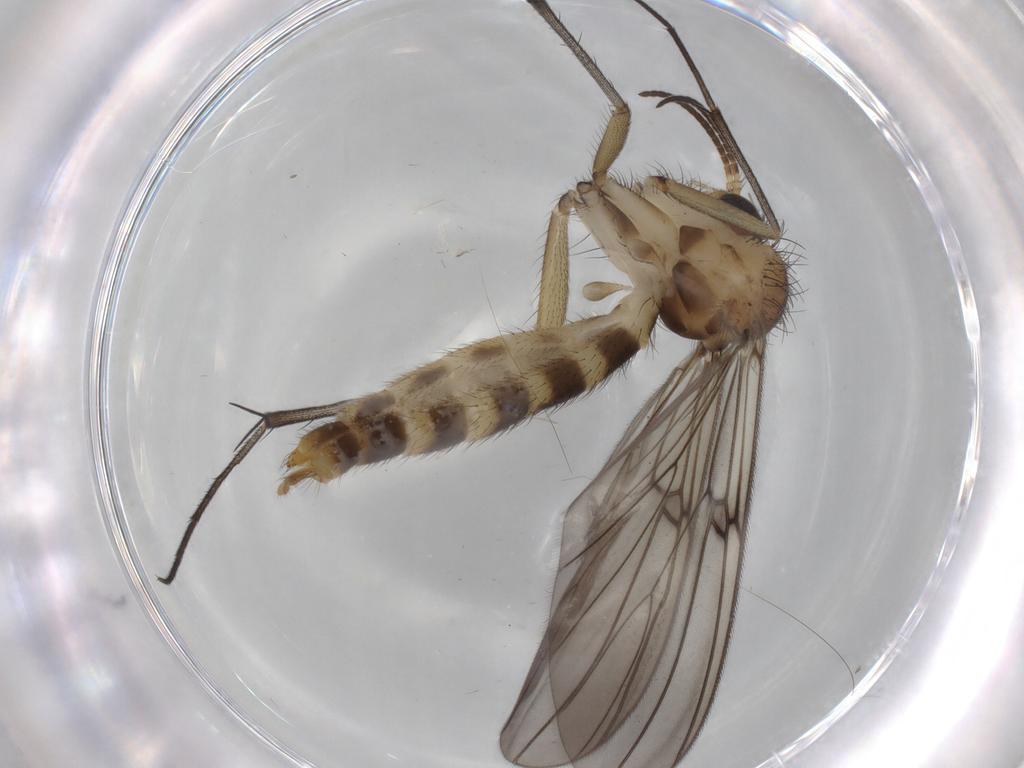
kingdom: Animalia
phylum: Arthropoda
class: Insecta
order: Diptera
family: Mycetophilidae
